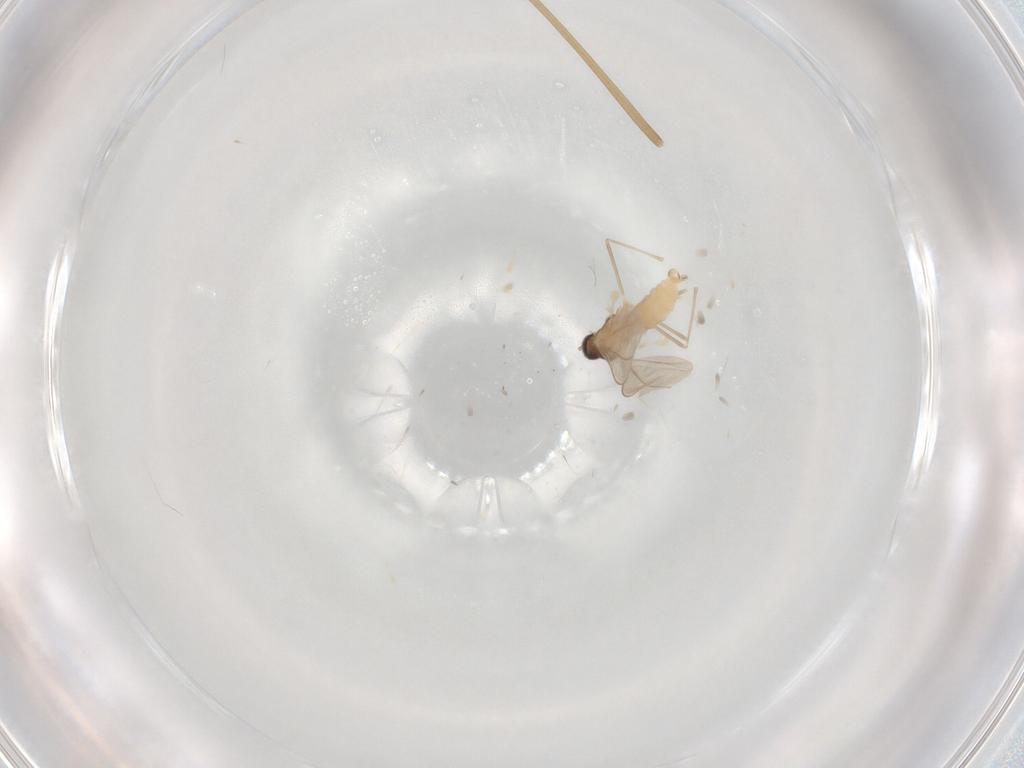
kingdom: Animalia
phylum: Arthropoda
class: Insecta
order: Diptera
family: Cecidomyiidae
